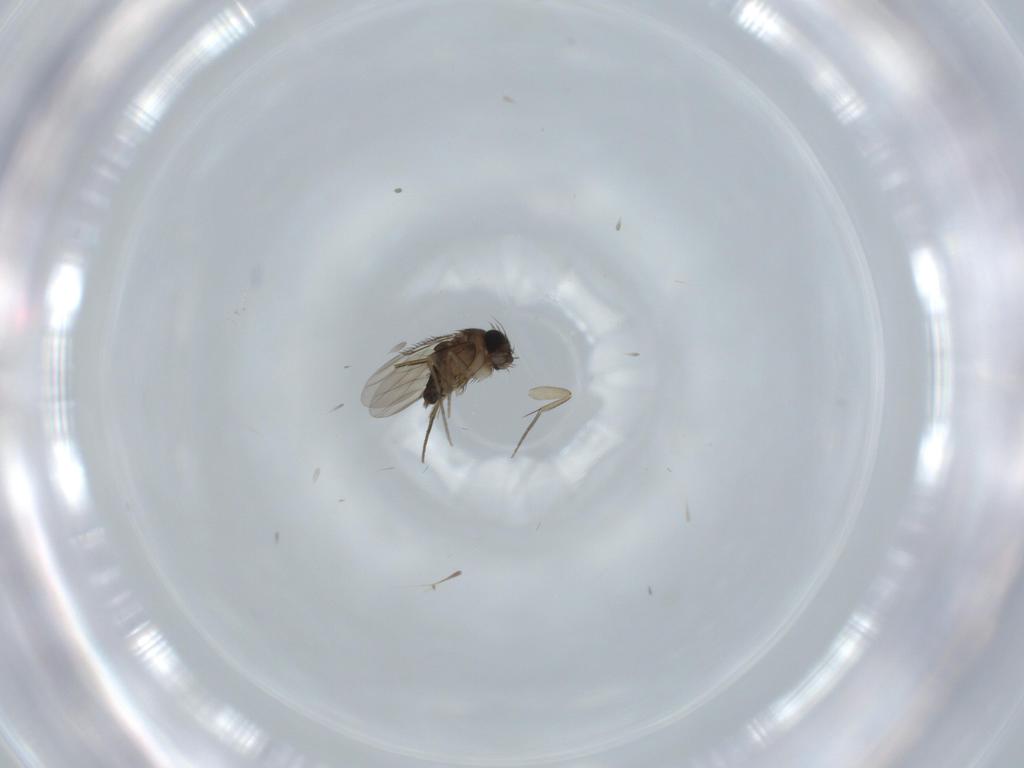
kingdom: Animalia
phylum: Arthropoda
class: Insecta
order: Diptera
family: Phoridae
